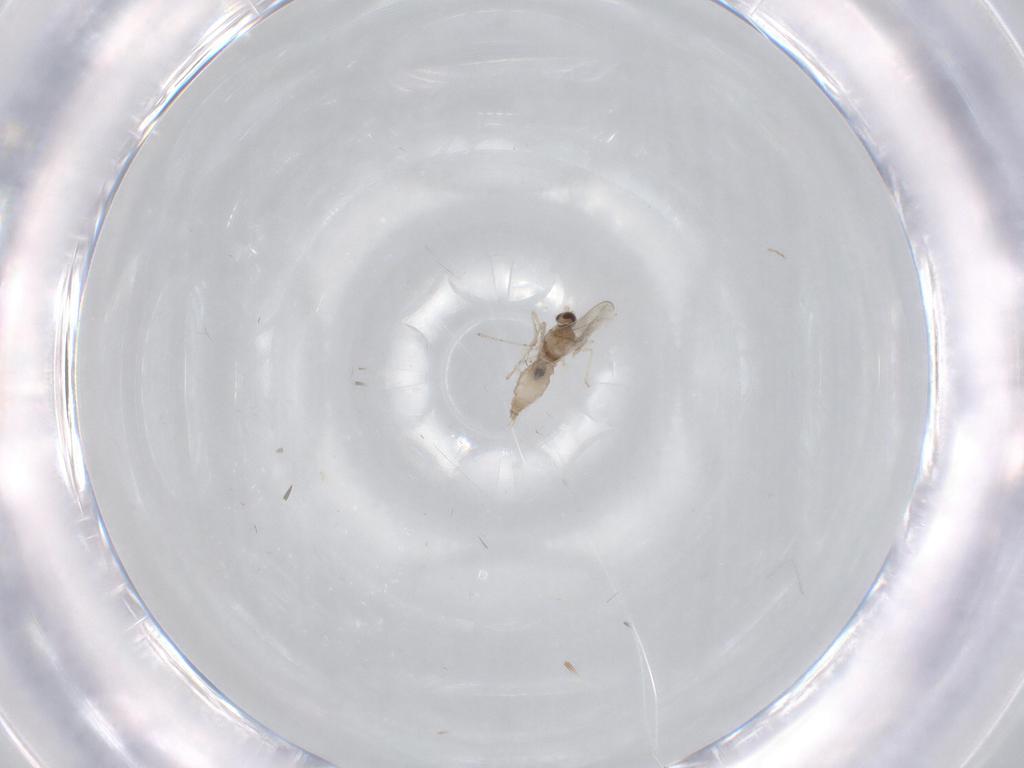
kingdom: Animalia
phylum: Arthropoda
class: Insecta
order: Diptera
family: Cecidomyiidae
